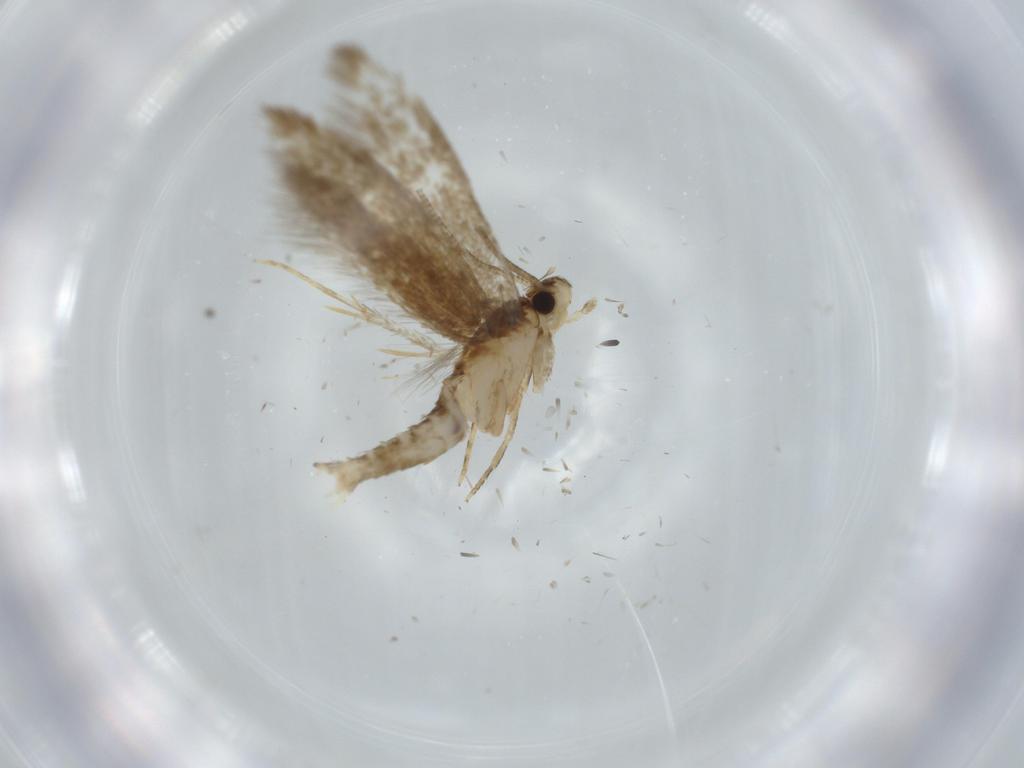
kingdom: Animalia
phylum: Arthropoda
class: Insecta
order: Lepidoptera
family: Tineidae
